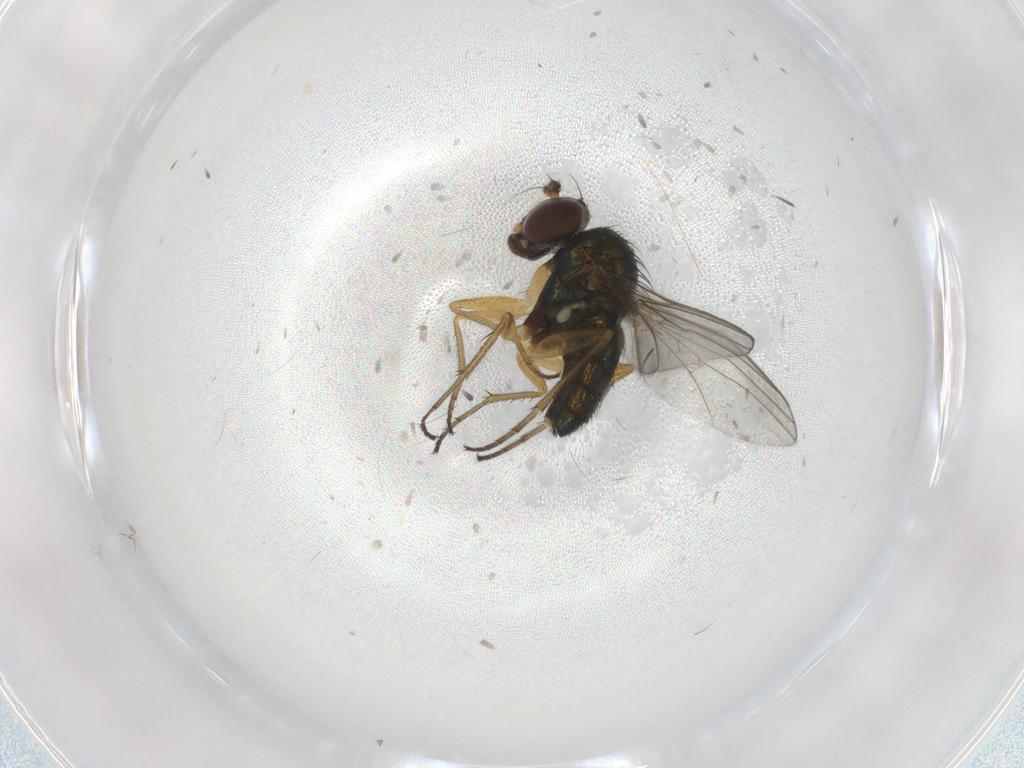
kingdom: Animalia
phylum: Arthropoda
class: Insecta
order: Diptera
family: Dolichopodidae
